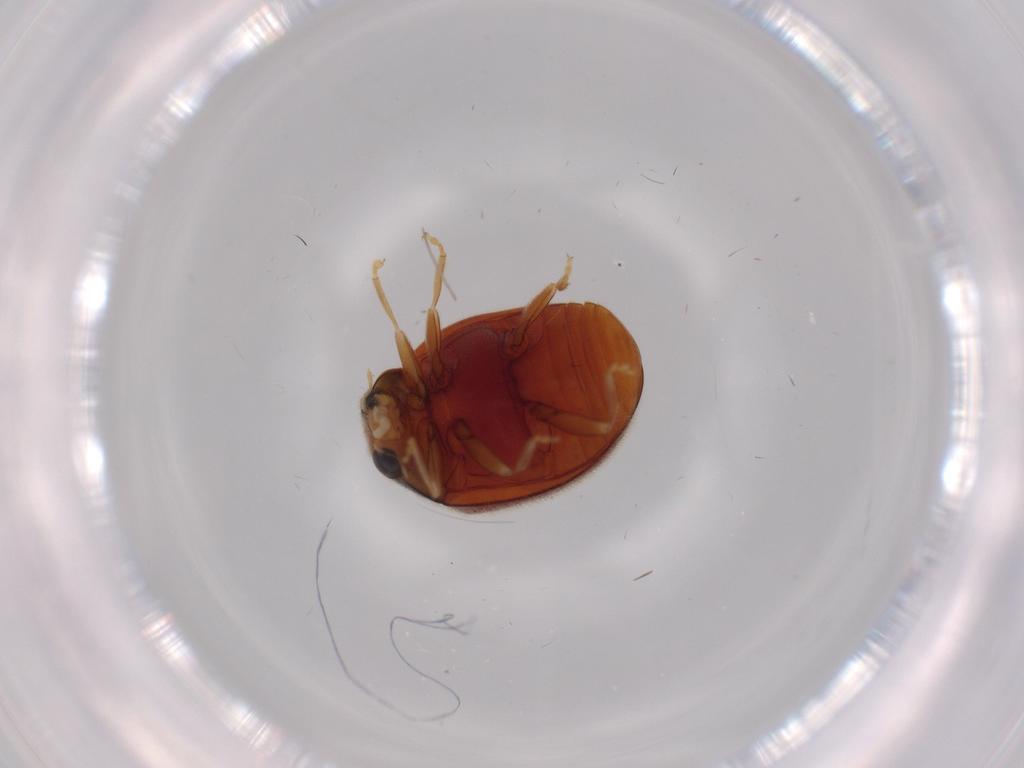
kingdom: Animalia
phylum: Arthropoda
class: Insecta
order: Coleoptera
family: Coccinellidae
